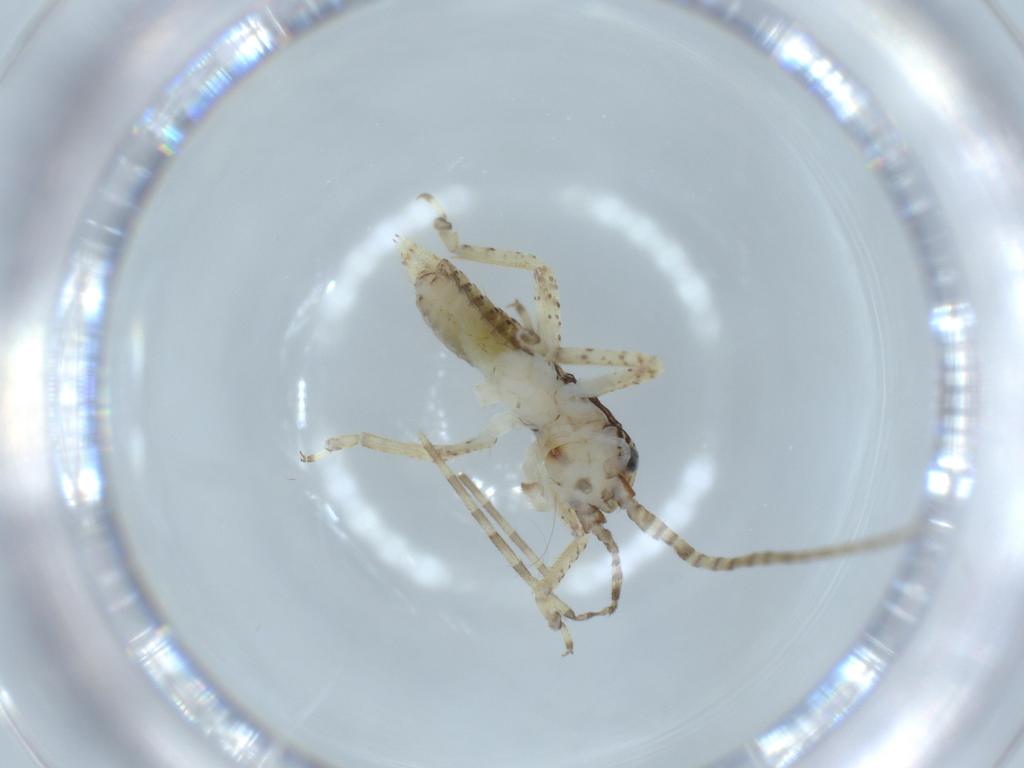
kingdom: Animalia
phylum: Arthropoda
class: Insecta
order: Orthoptera
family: Gryllidae
